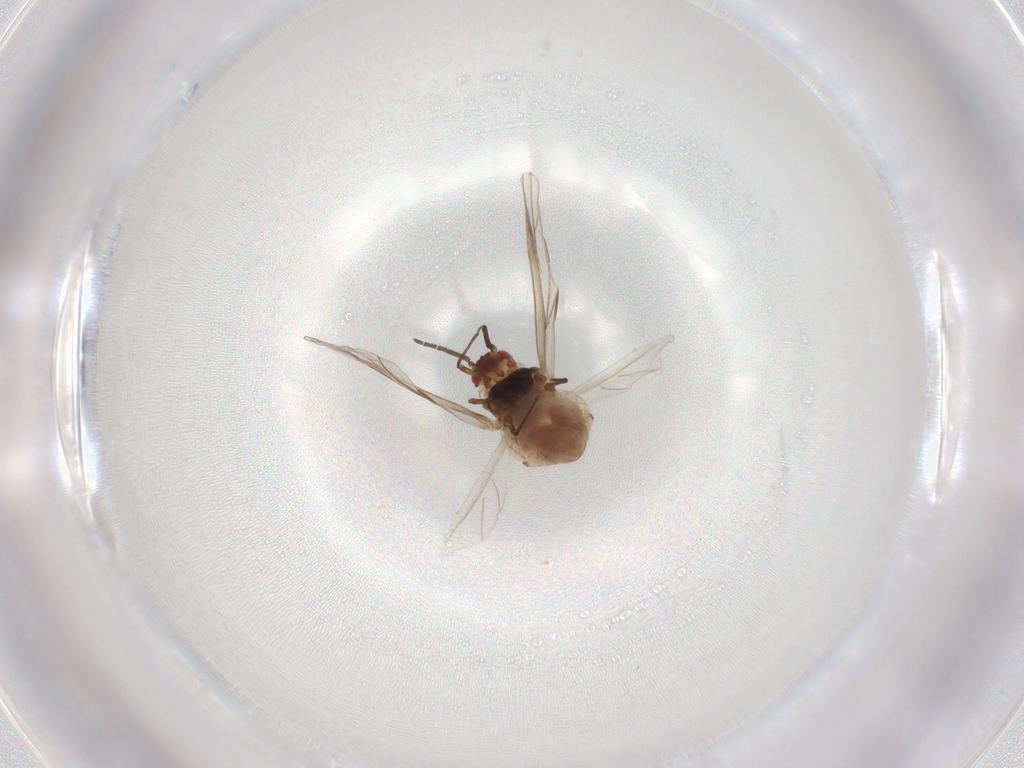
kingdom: Animalia
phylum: Arthropoda
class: Insecta
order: Hemiptera
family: Aphididae
